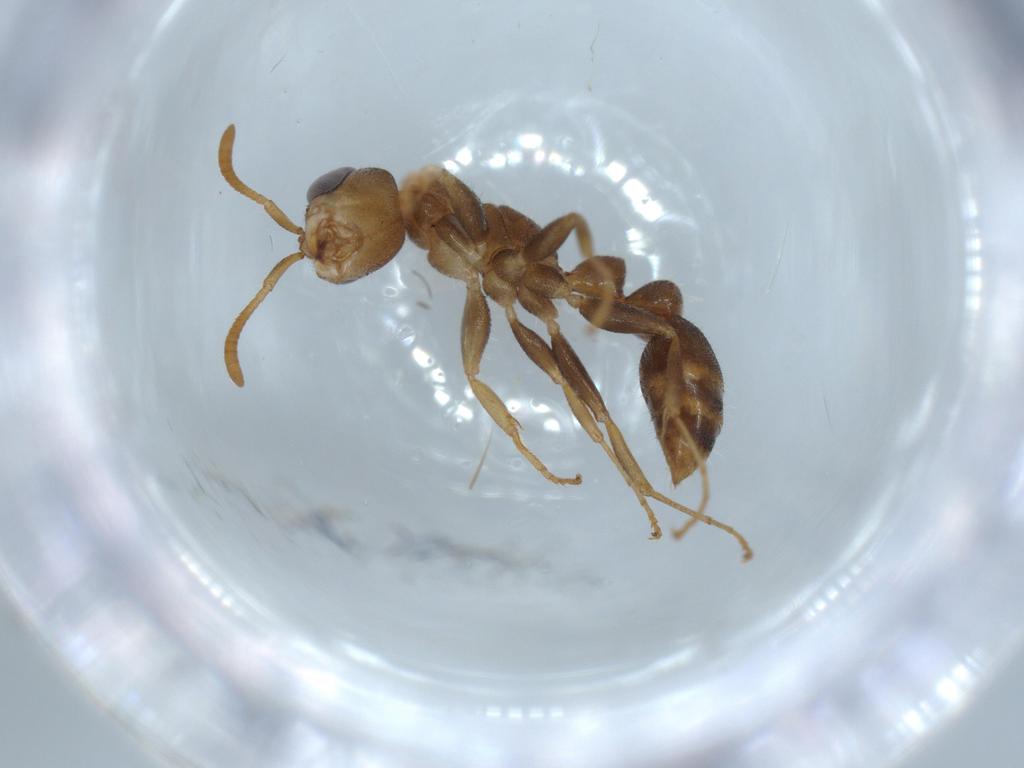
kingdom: Animalia
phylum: Arthropoda
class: Insecta
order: Hymenoptera
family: Formicidae
